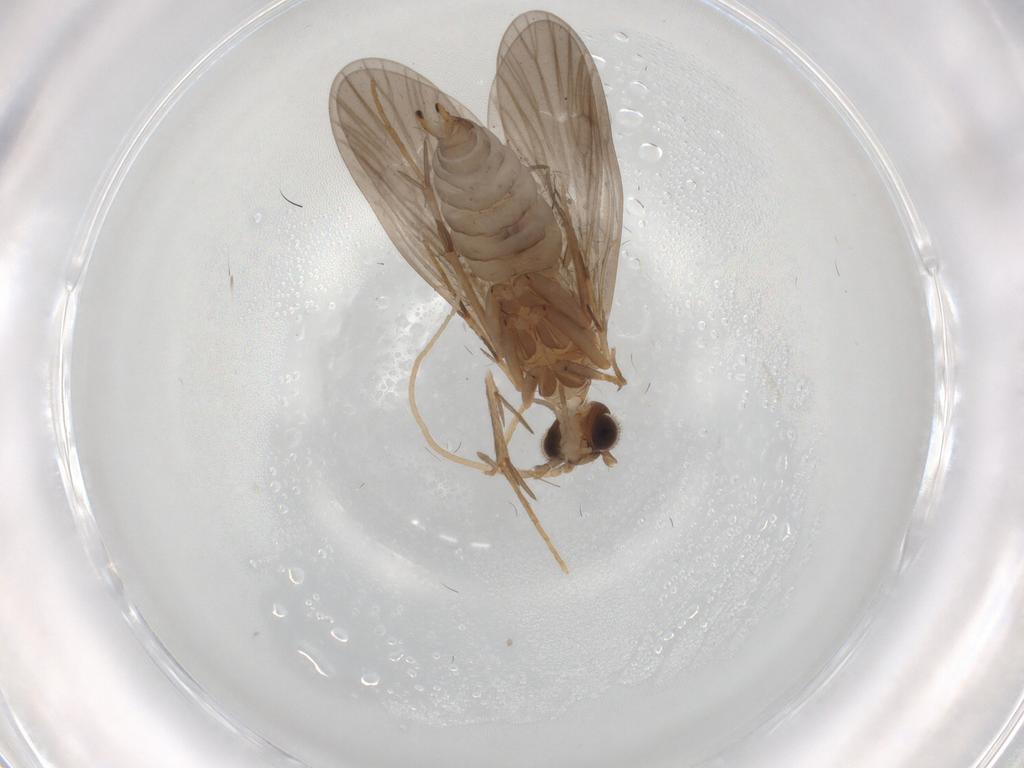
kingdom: Animalia
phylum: Arthropoda
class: Insecta
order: Trichoptera
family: Philopotamidae
